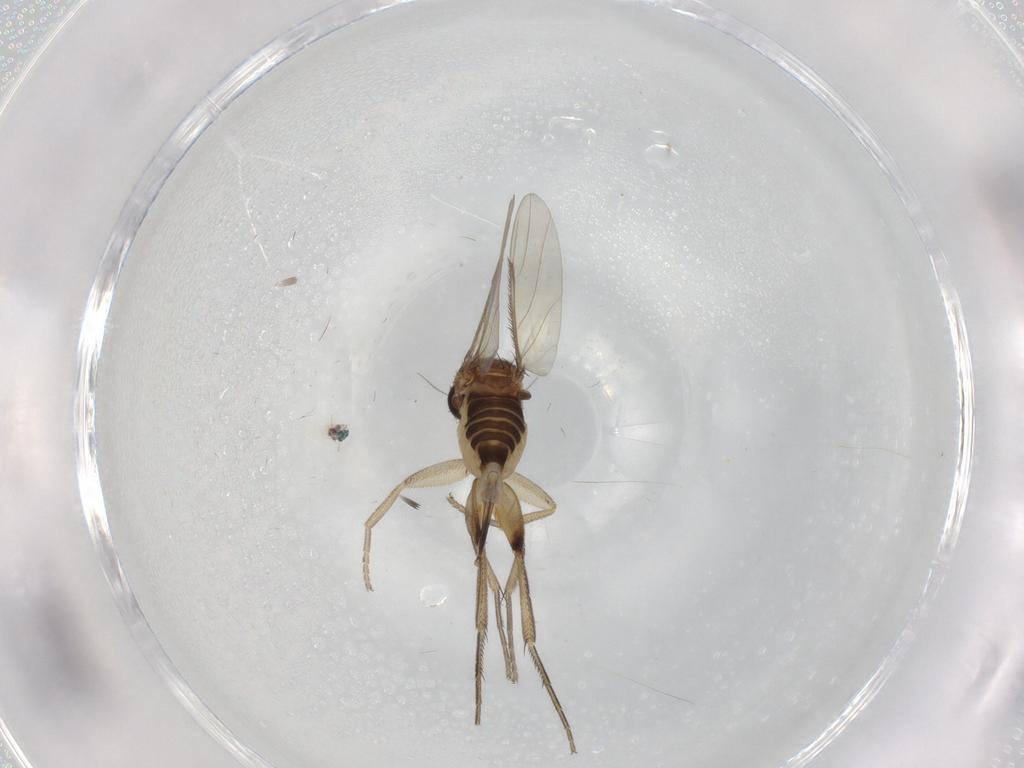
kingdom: Animalia
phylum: Arthropoda
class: Insecta
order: Diptera
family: Phoridae
